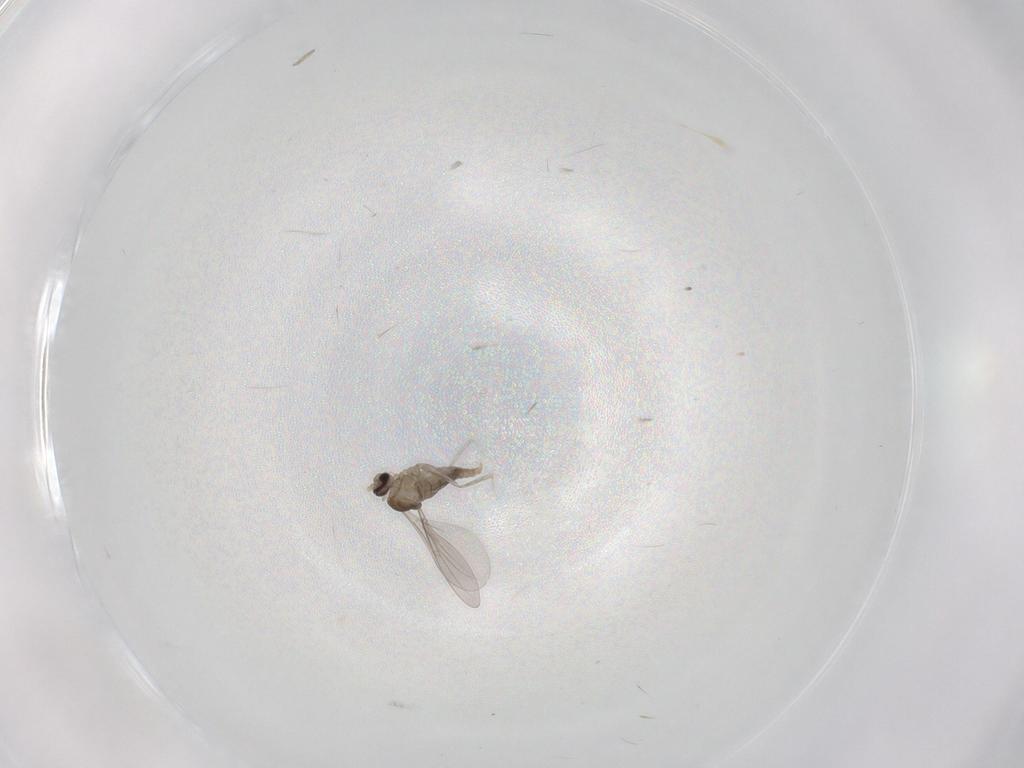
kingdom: Animalia
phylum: Arthropoda
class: Insecta
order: Diptera
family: Cecidomyiidae
